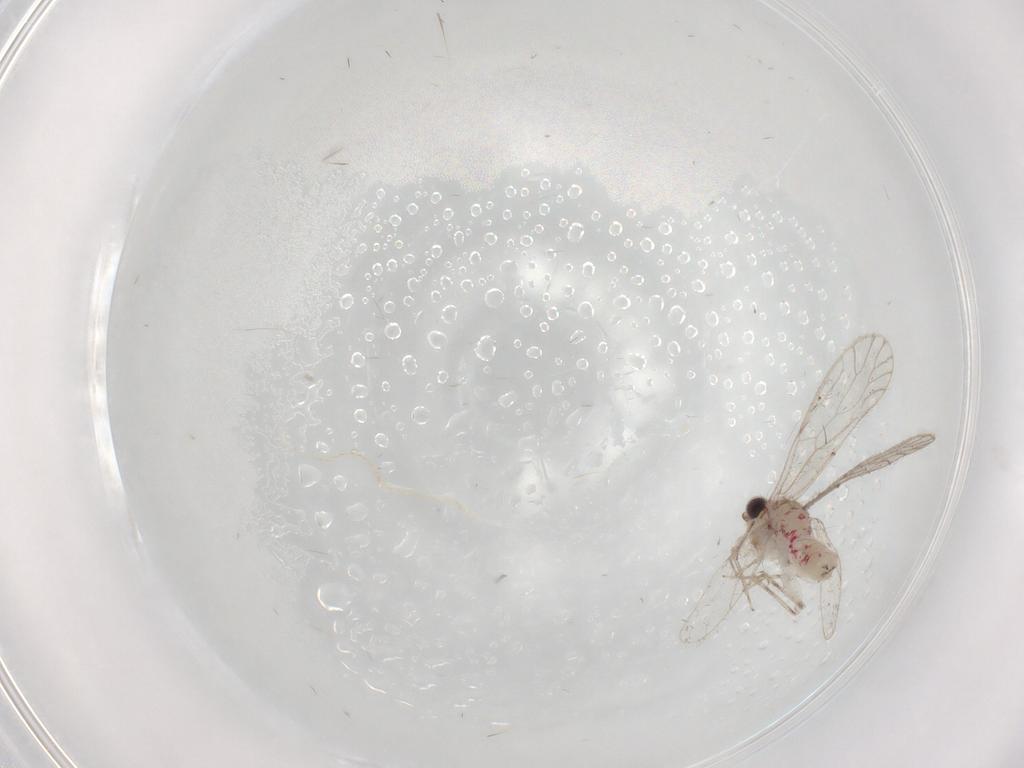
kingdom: Animalia
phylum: Arthropoda
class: Insecta
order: Psocodea
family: Caeciliusidae
